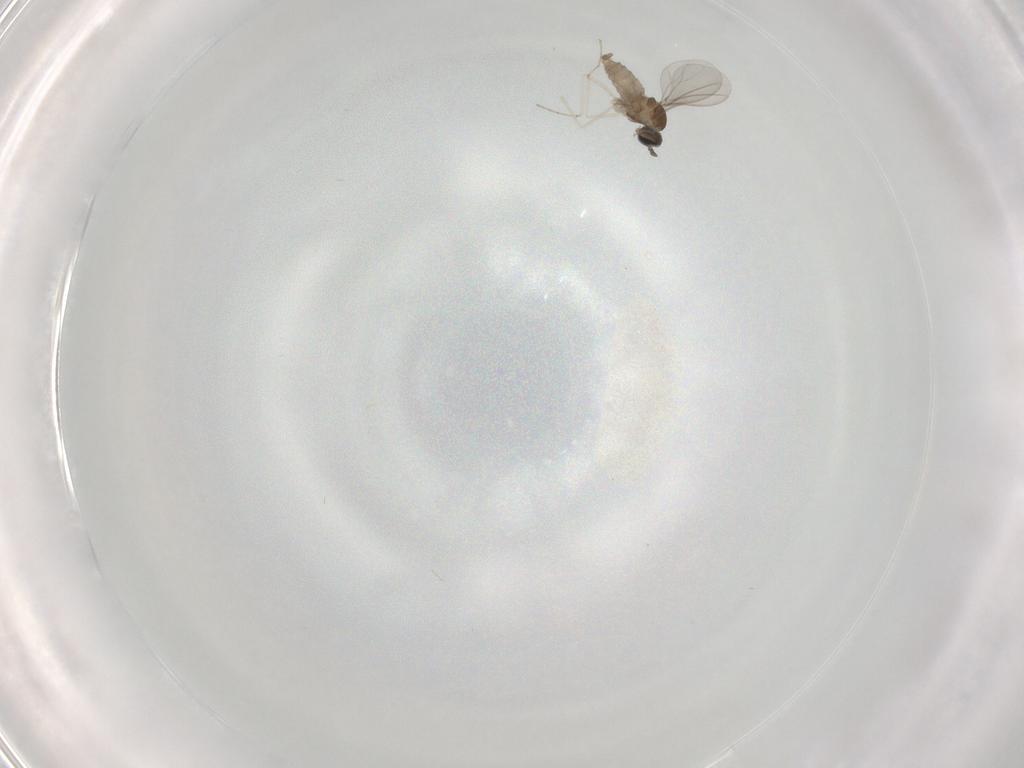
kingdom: Animalia
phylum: Arthropoda
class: Insecta
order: Diptera
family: Cecidomyiidae
